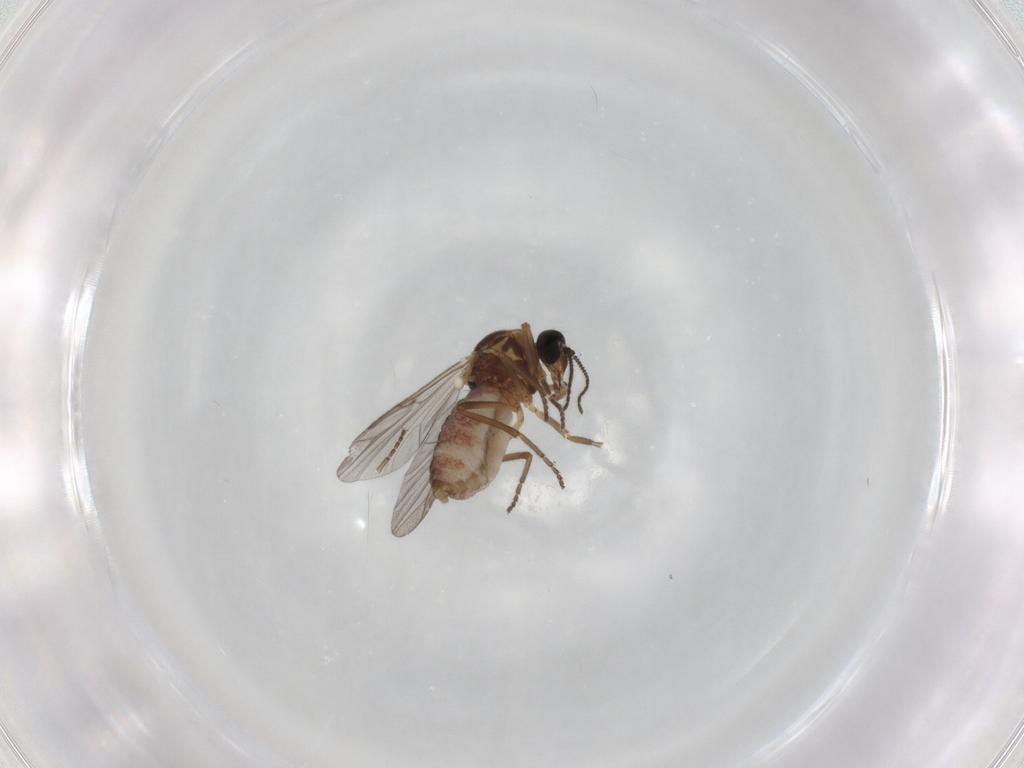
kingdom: Animalia
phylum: Arthropoda
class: Insecta
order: Diptera
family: Ceratopogonidae
